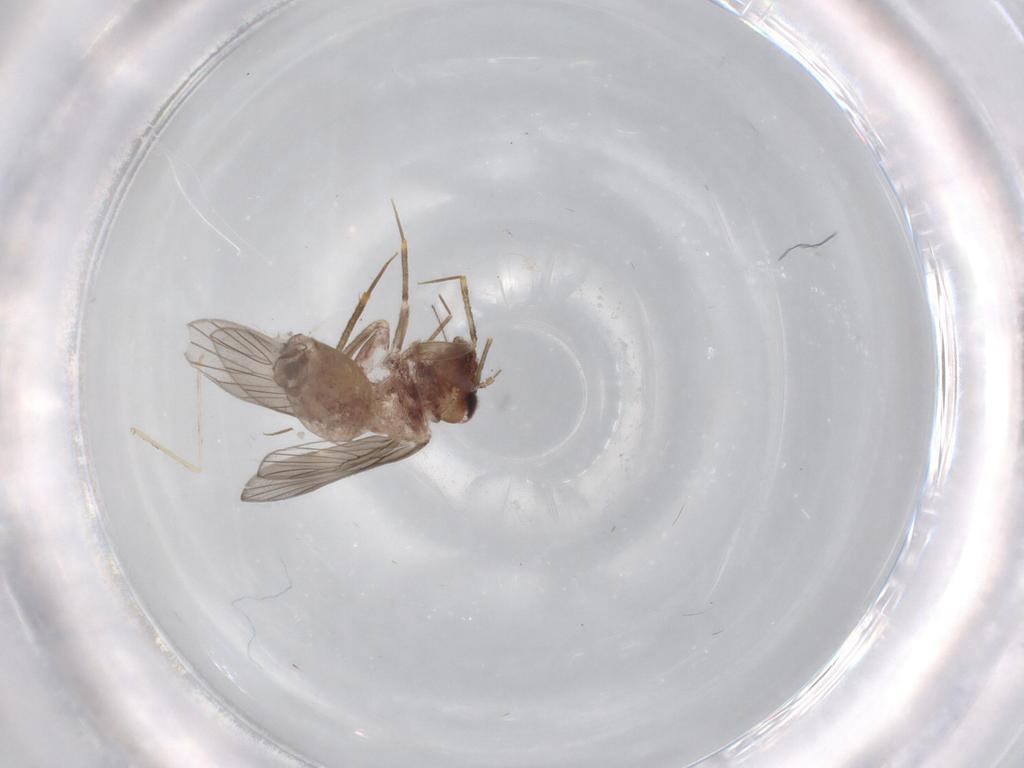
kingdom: Animalia
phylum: Arthropoda
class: Insecta
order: Psocodea
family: Lepidopsocidae
